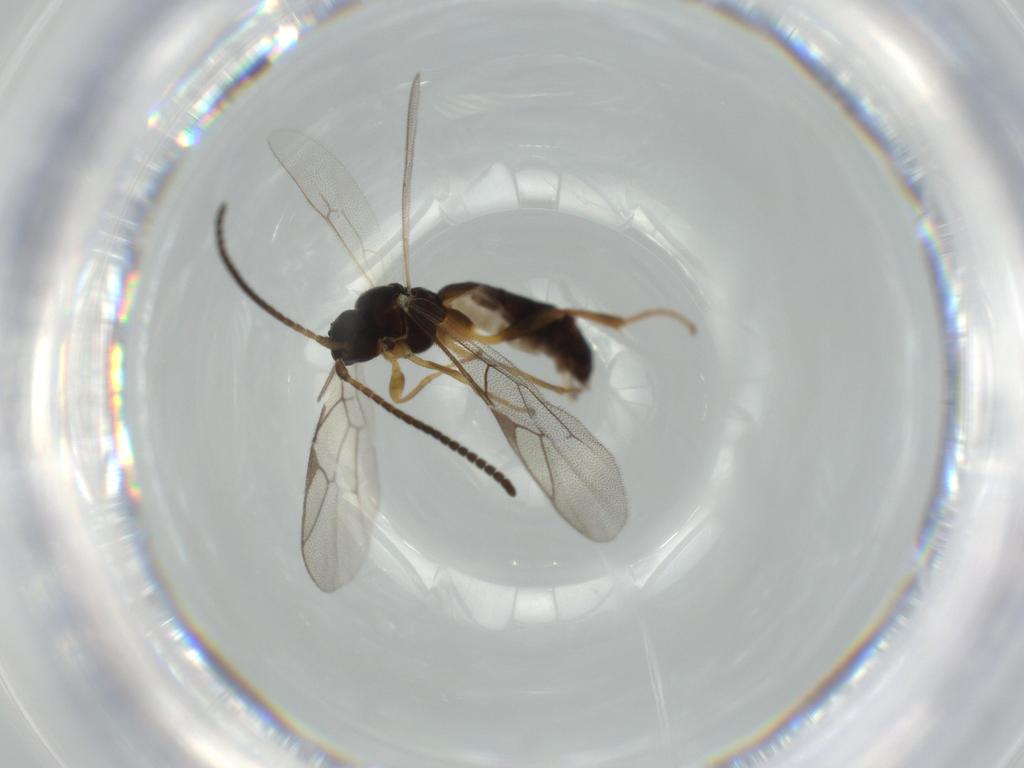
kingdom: Animalia
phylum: Arthropoda
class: Insecta
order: Hymenoptera
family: Ichneumonidae
